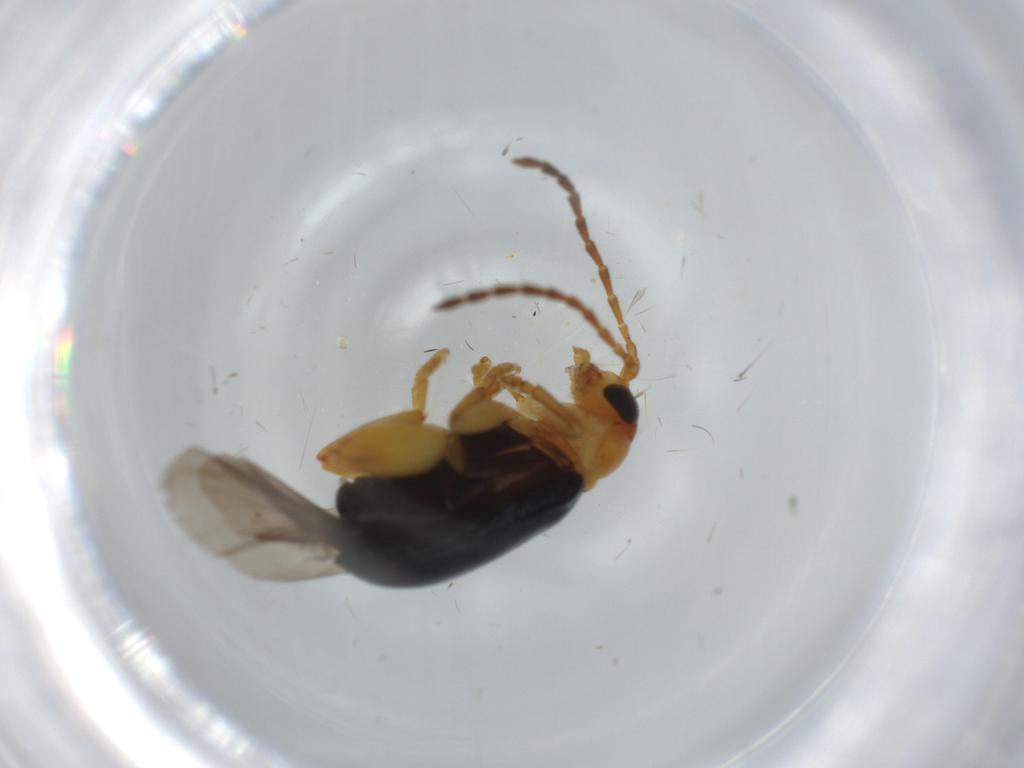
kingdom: Animalia
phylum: Arthropoda
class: Insecta
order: Coleoptera
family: Chrysomelidae
